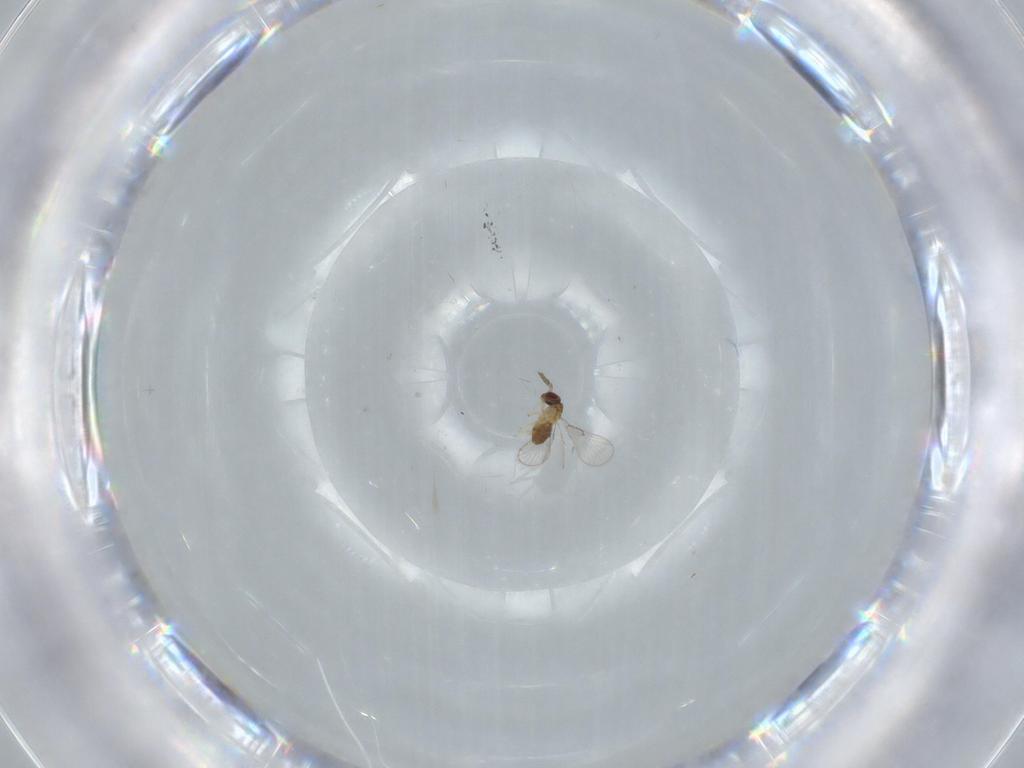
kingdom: Animalia
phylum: Arthropoda
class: Insecta
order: Hymenoptera
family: Trichogrammatidae
